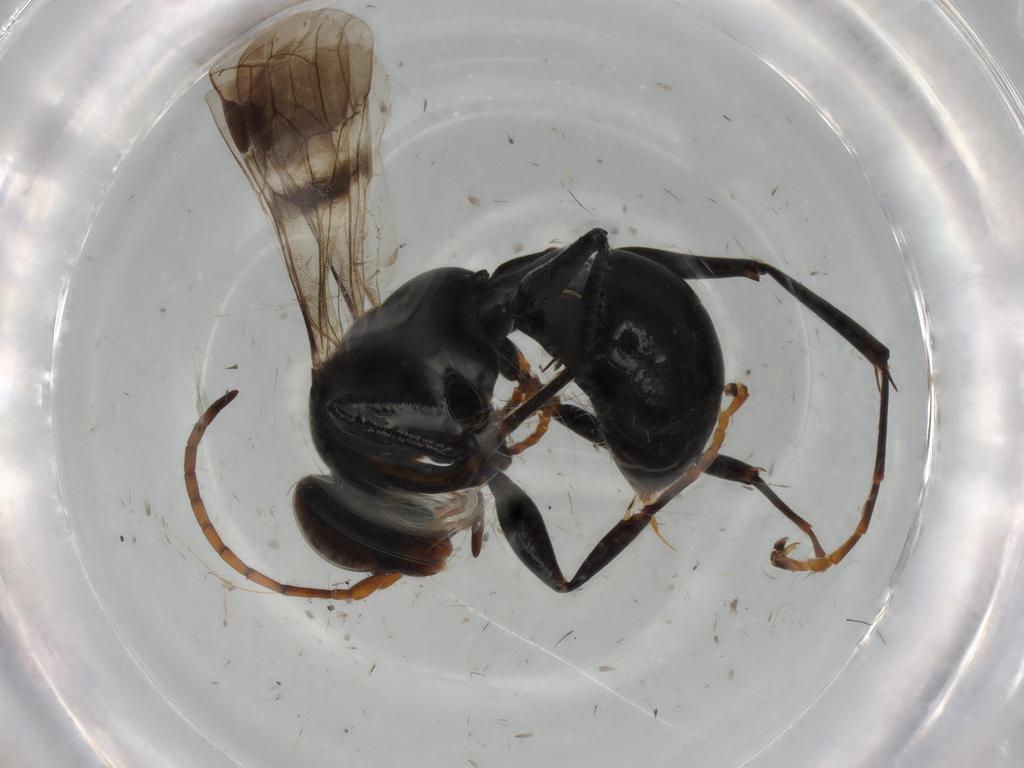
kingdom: Animalia
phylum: Arthropoda
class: Insecta
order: Hymenoptera
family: Pompilidae
